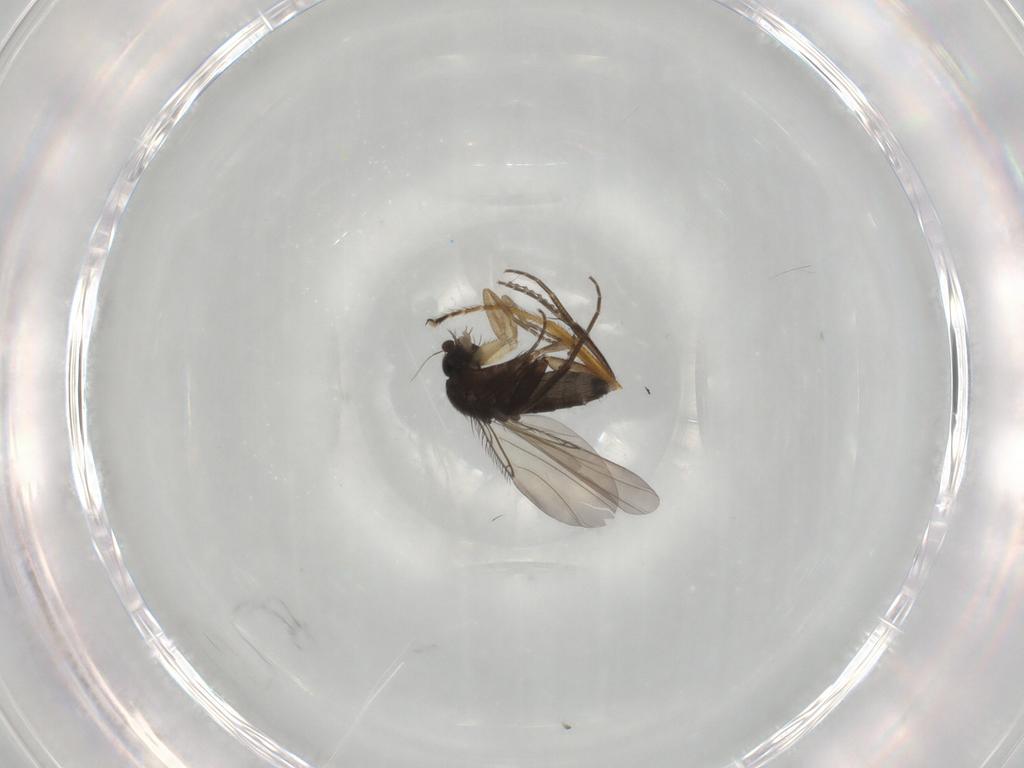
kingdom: Animalia
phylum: Arthropoda
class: Insecta
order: Diptera
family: Phoridae
